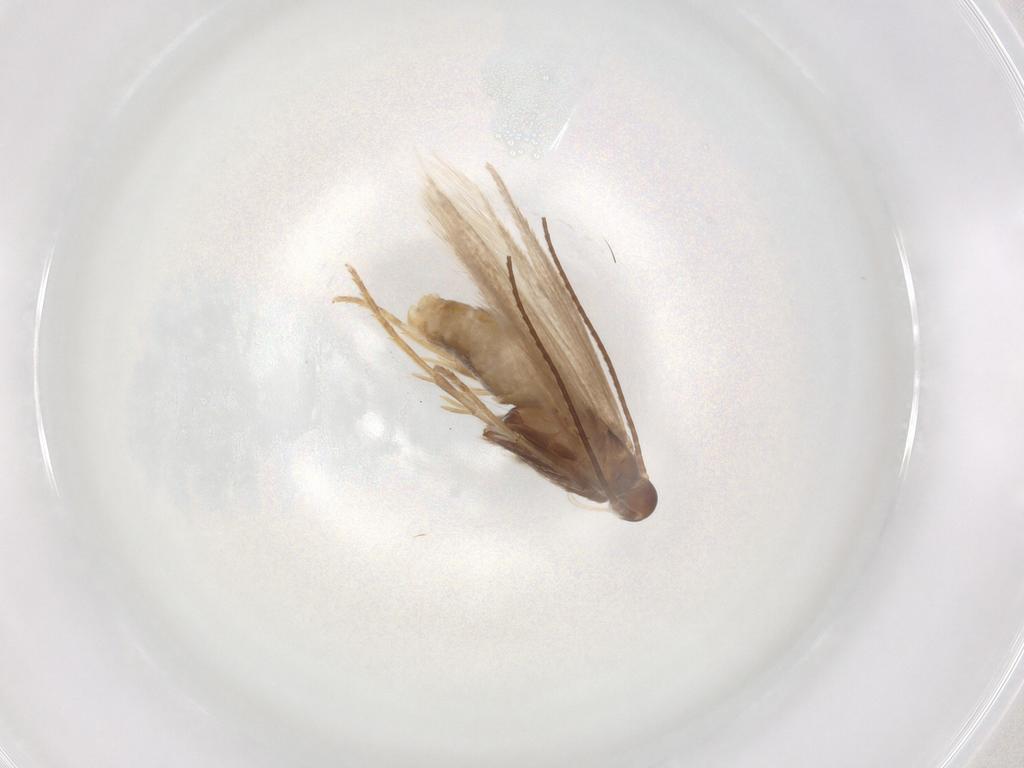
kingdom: Animalia
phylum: Arthropoda
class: Insecta
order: Lepidoptera
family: Coleophoridae
